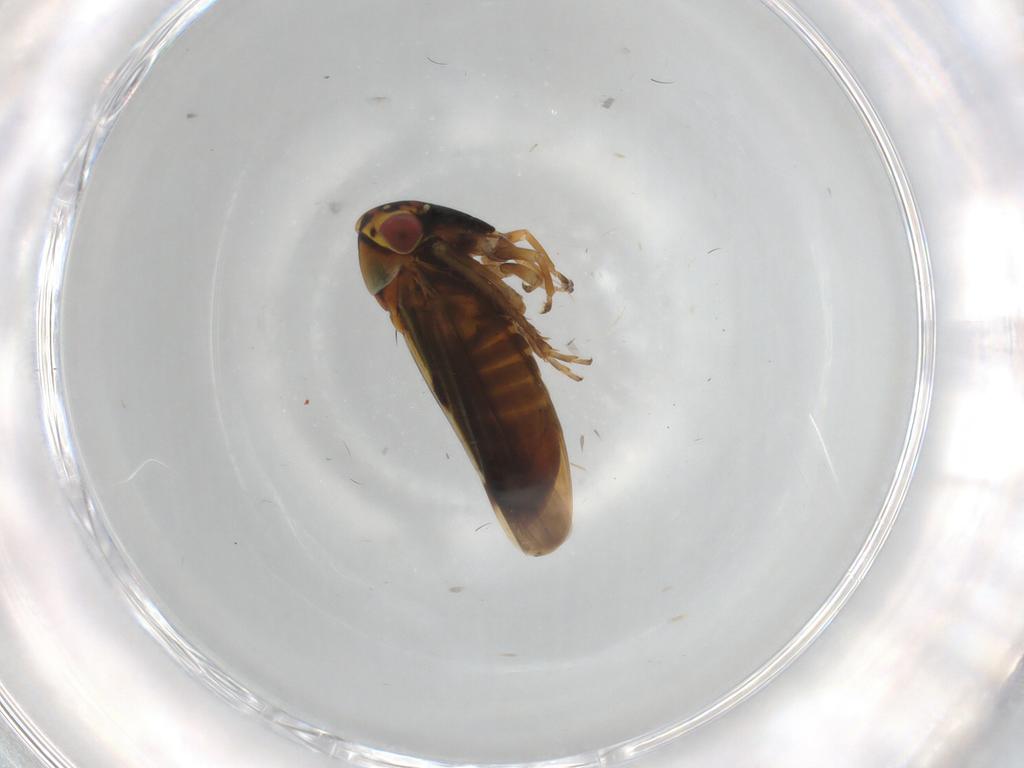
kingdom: Animalia
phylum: Arthropoda
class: Insecta
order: Hemiptera
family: Cicadellidae
